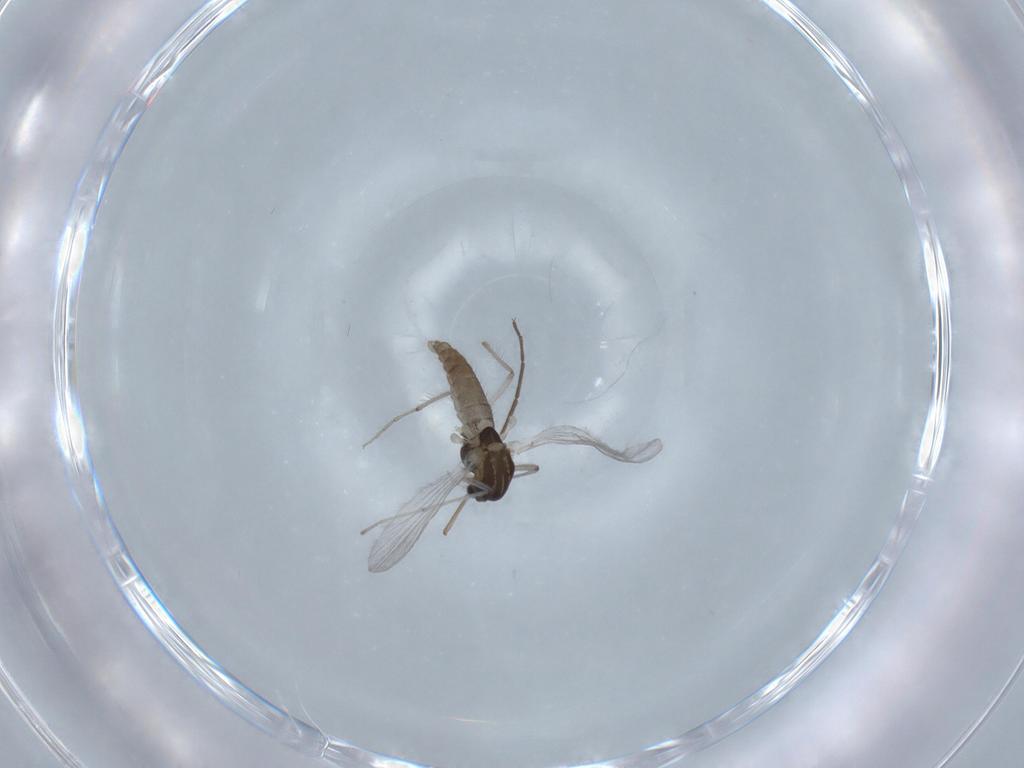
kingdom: Animalia
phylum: Arthropoda
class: Insecta
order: Diptera
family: Chironomidae
